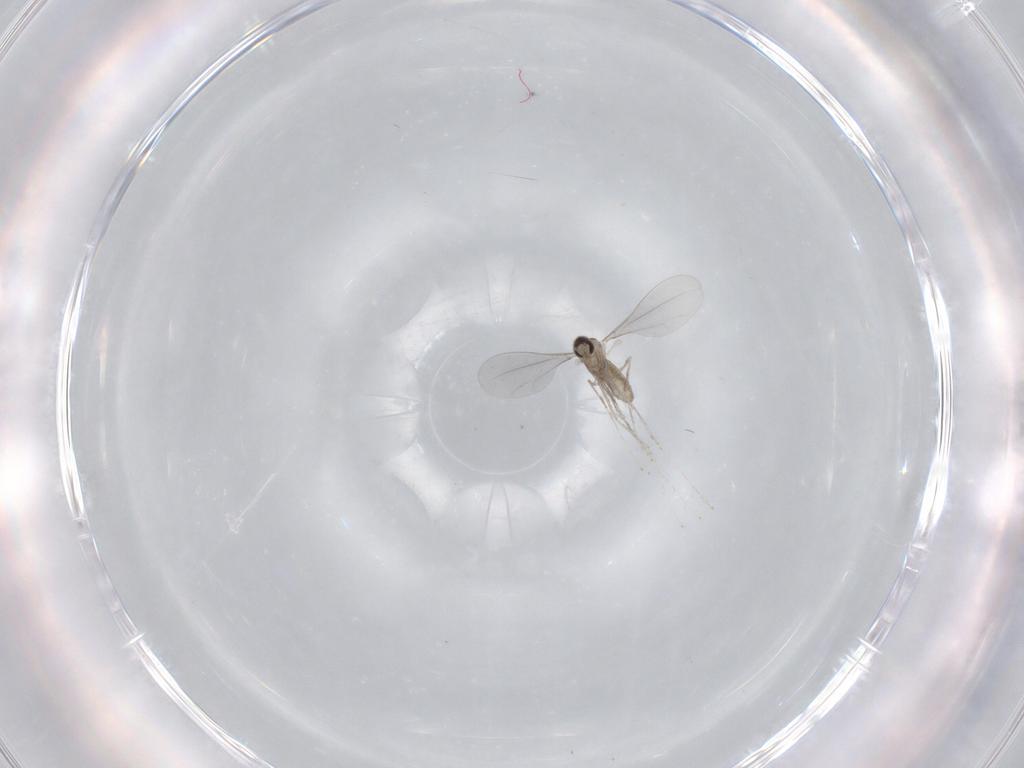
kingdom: Animalia
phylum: Arthropoda
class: Insecta
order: Diptera
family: Cecidomyiidae
